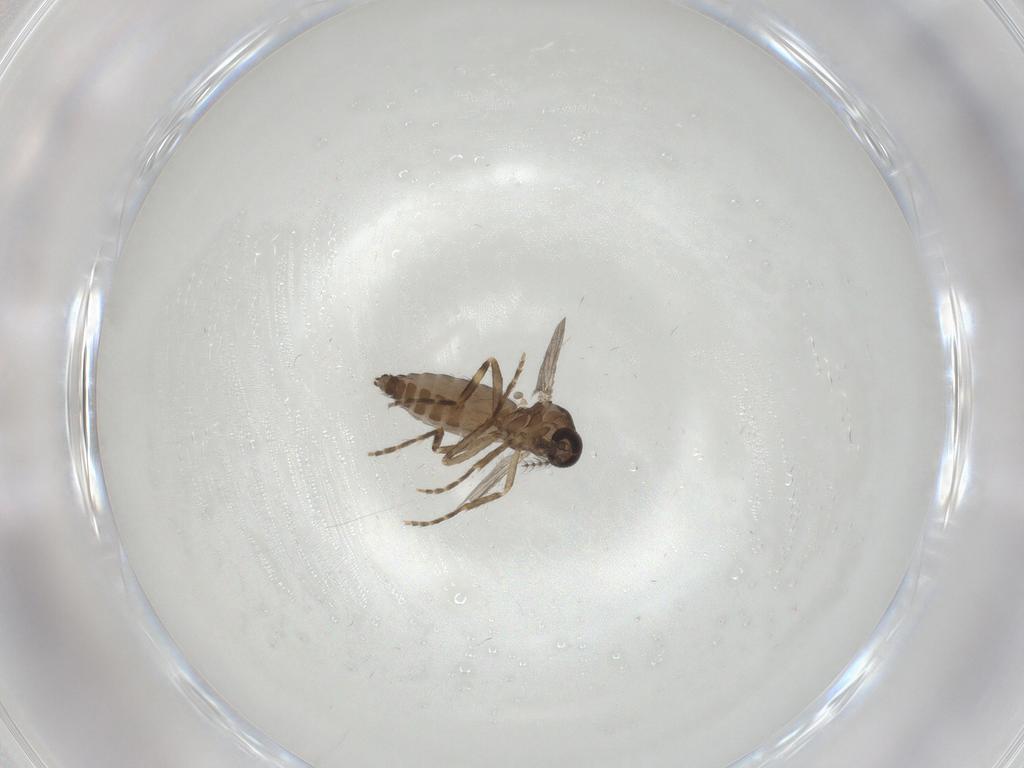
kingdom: Animalia
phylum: Arthropoda
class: Insecta
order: Diptera
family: Ceratopogonidae
